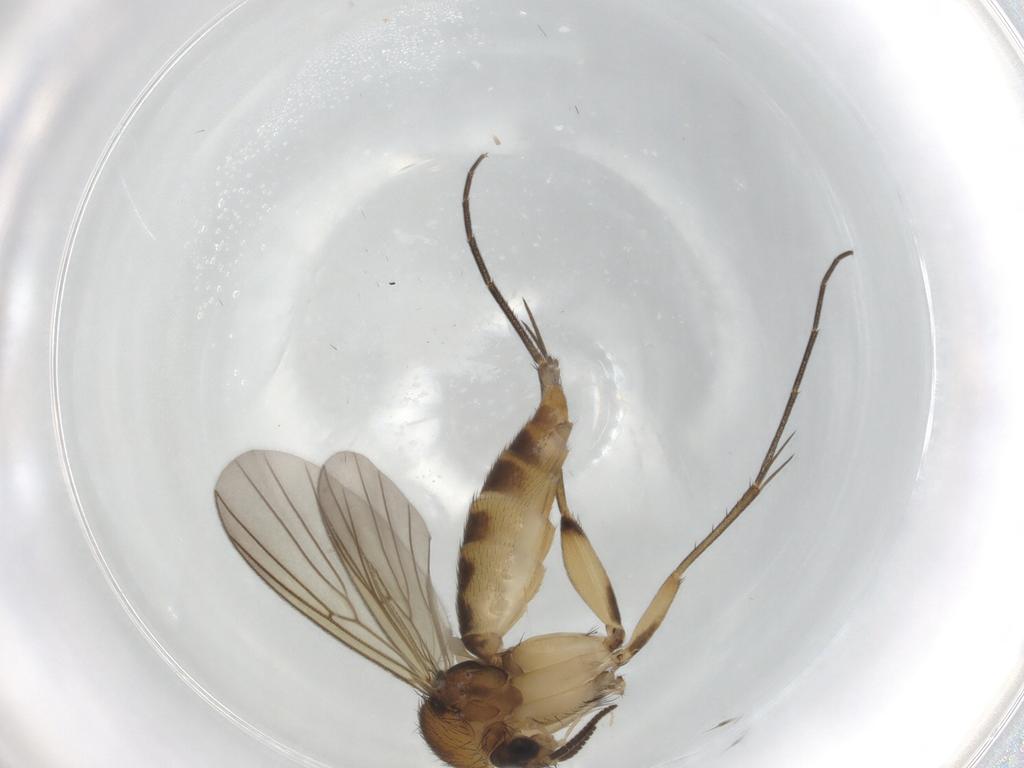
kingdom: Animalia
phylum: Arthropoda
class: Insecta
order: Diptera
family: Mycetophilidae
